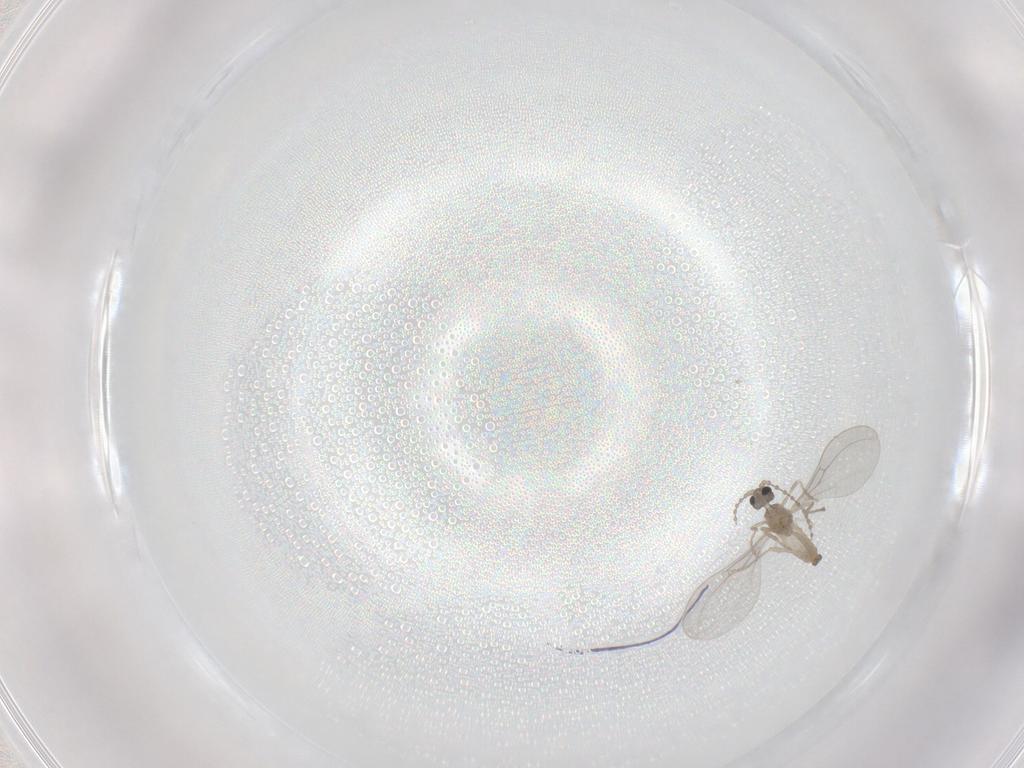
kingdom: Animalia
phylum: Arthropoda
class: Insecta
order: Diptera
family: Cecidomyiidae
